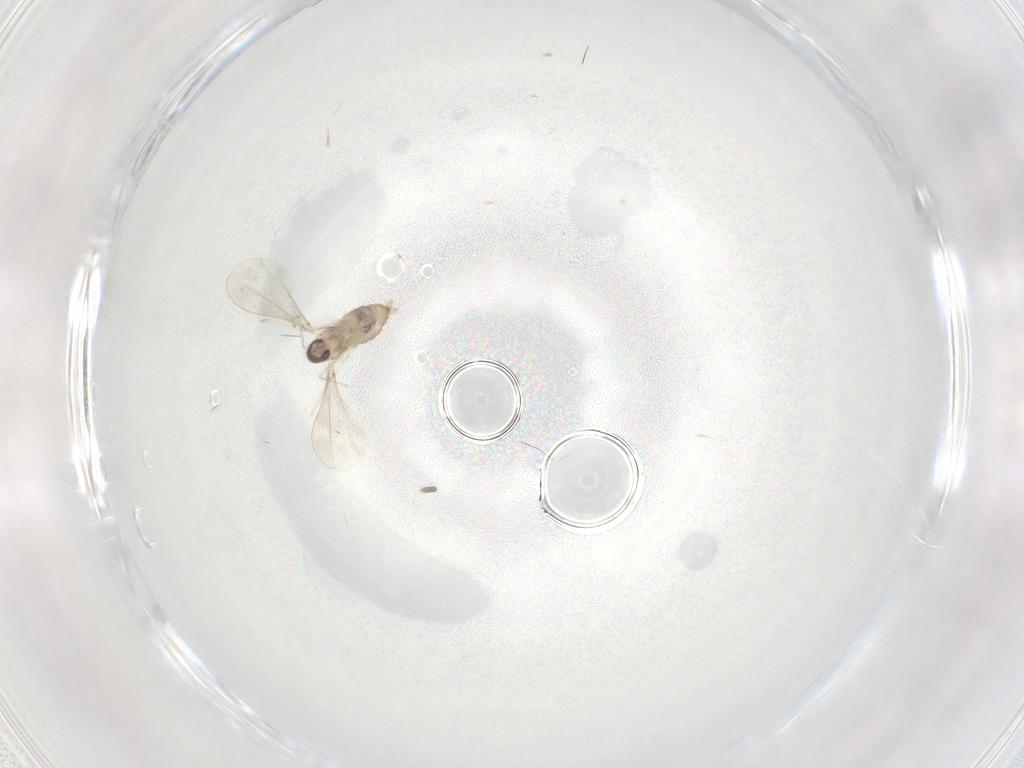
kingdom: Animalia
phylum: Arthropoda
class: Insecta
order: Diptera
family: Cecidomyiidae
